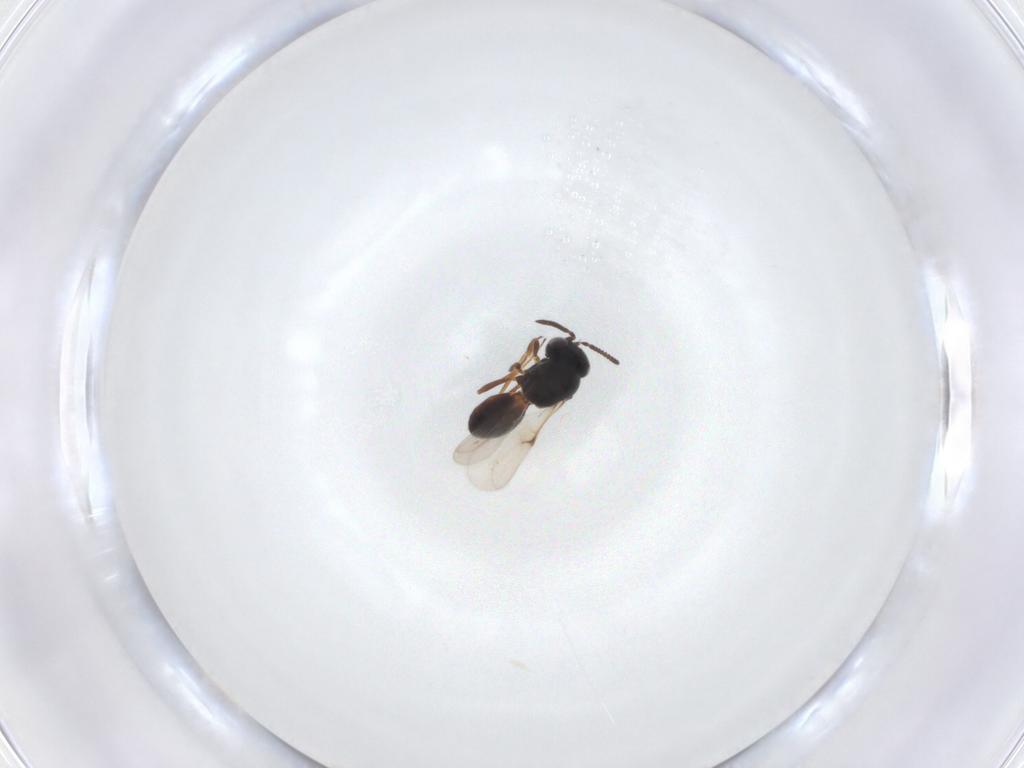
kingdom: Animalia
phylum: Arthropoda
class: Arachnida
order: Araneae
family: Pholcidae
